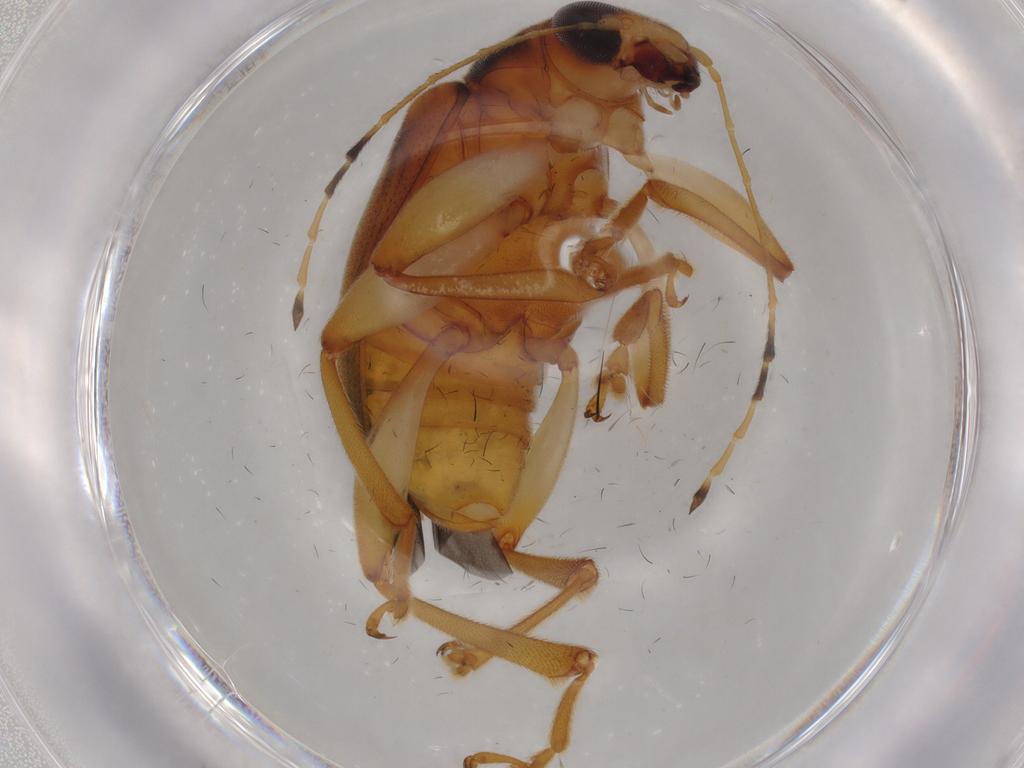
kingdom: Animalia
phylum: Arthropoda
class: Insecta
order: Coleoptera
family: Chrysomelidae
